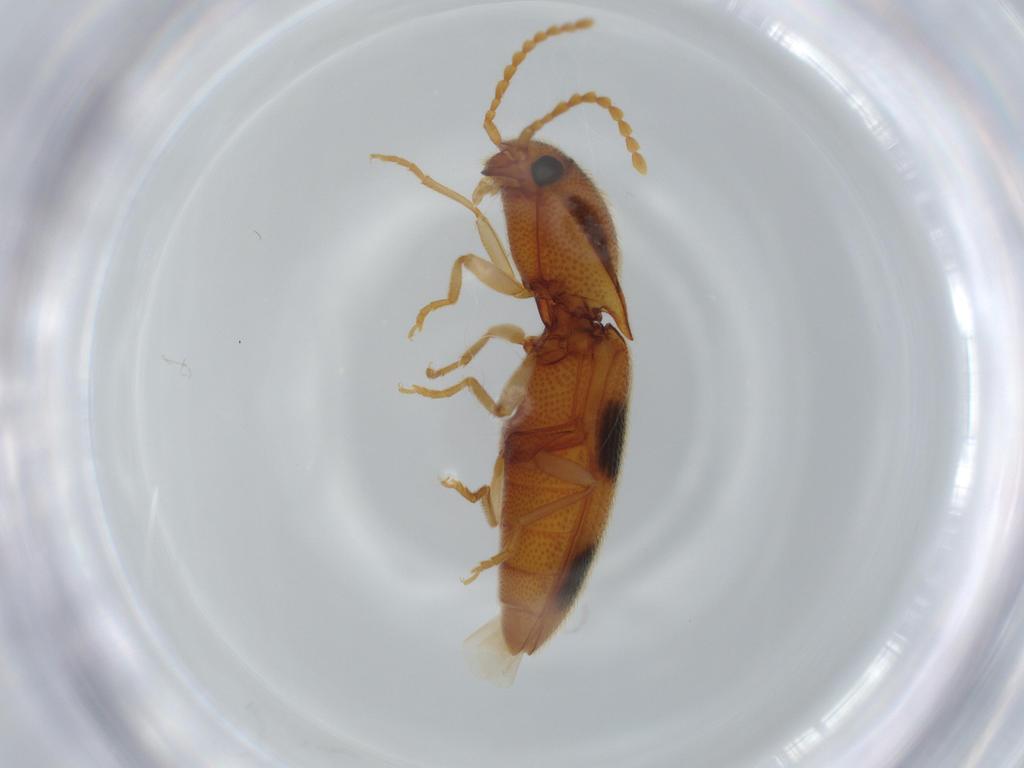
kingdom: Animalia
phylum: Arthropoda
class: Insecta
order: Coleoptera
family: Elateridae
